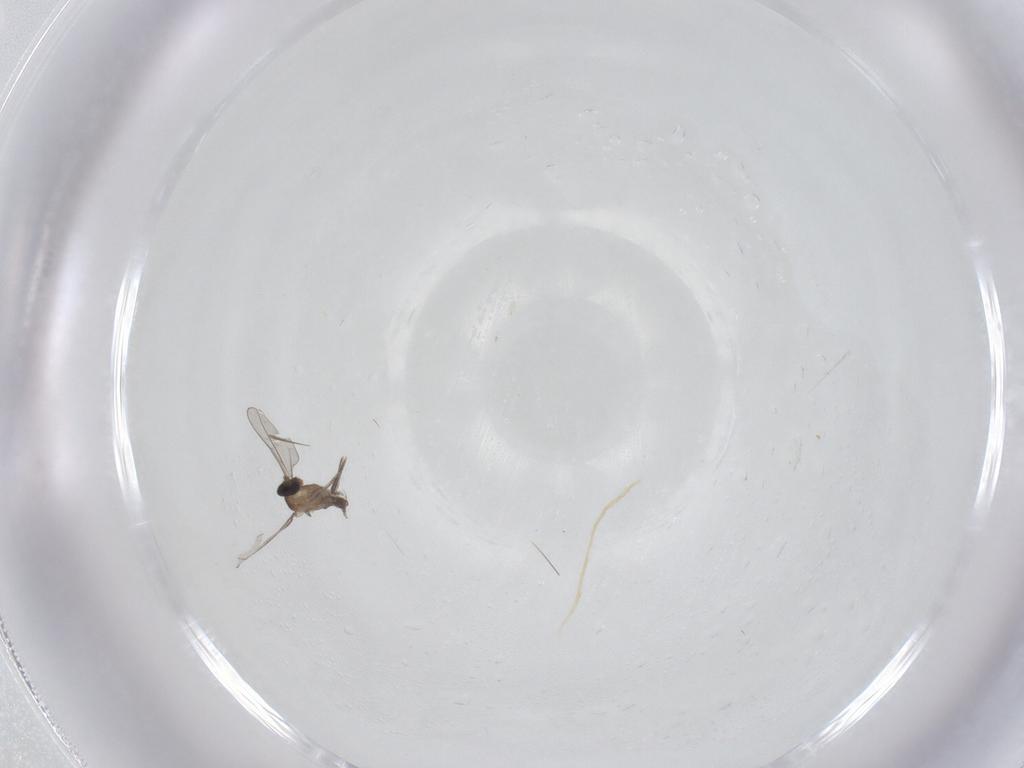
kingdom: Animalia
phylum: Arthropoda
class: Insecta
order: Diptera
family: Cecidomyiidae
